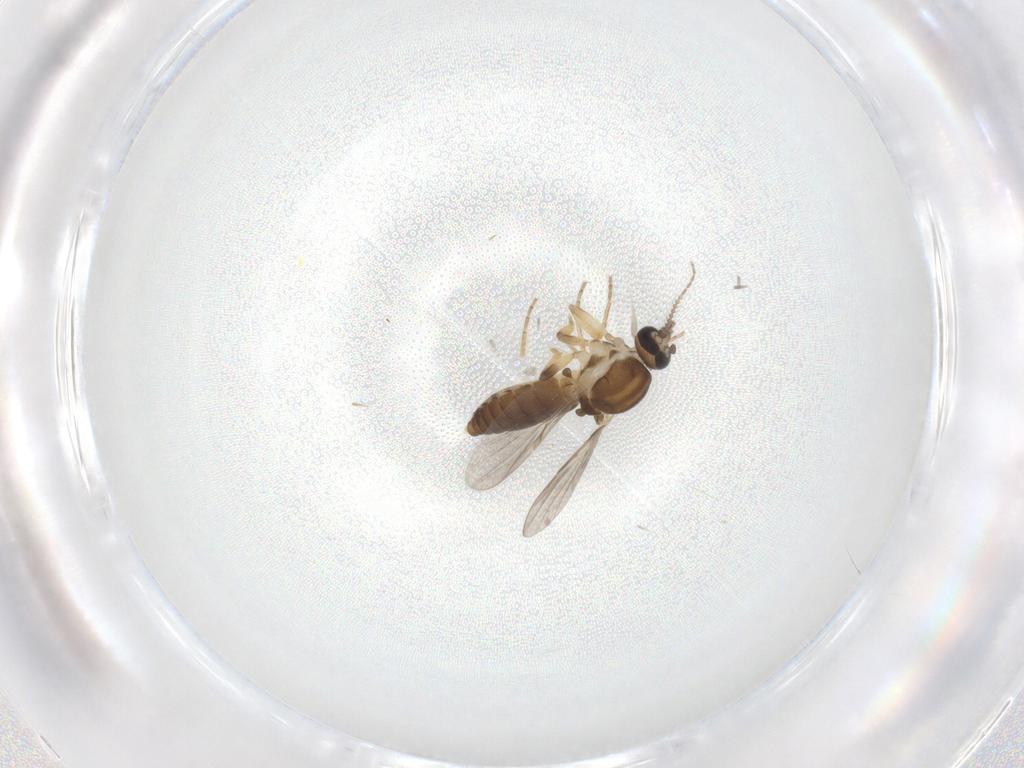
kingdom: Animalia
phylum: Arthropoda
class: Insecta
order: Diptera
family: Ceratopogonidae
